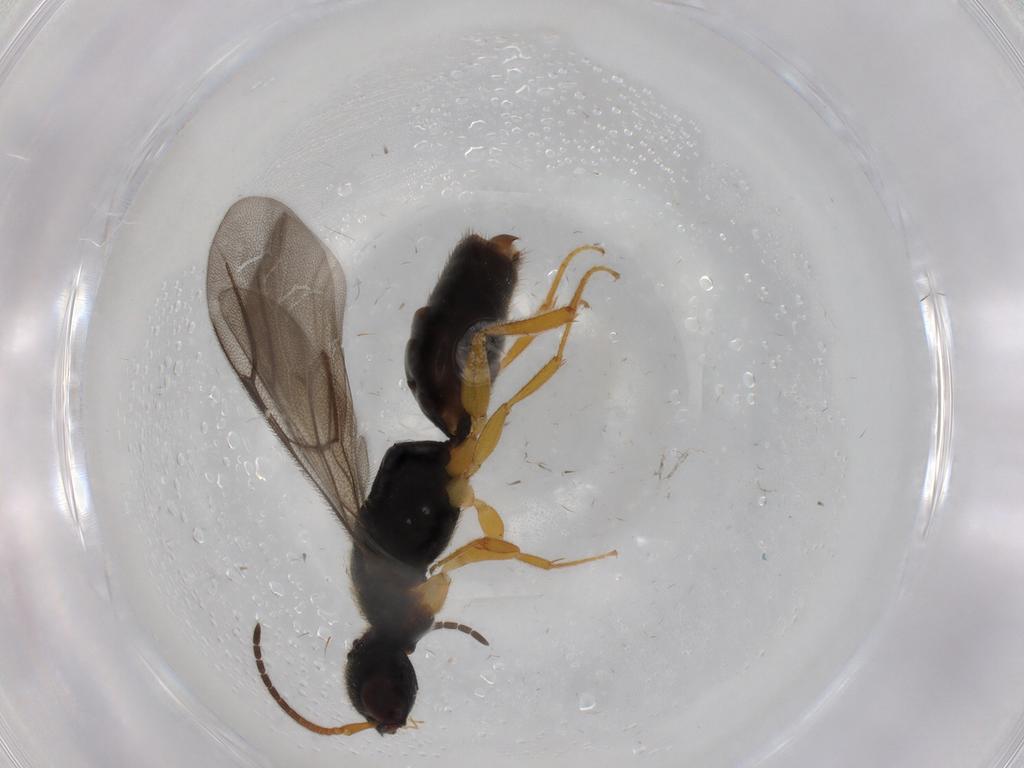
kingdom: Animalia
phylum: Arthropoda
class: Insecta
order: Hymenoptera
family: Bethylidae
